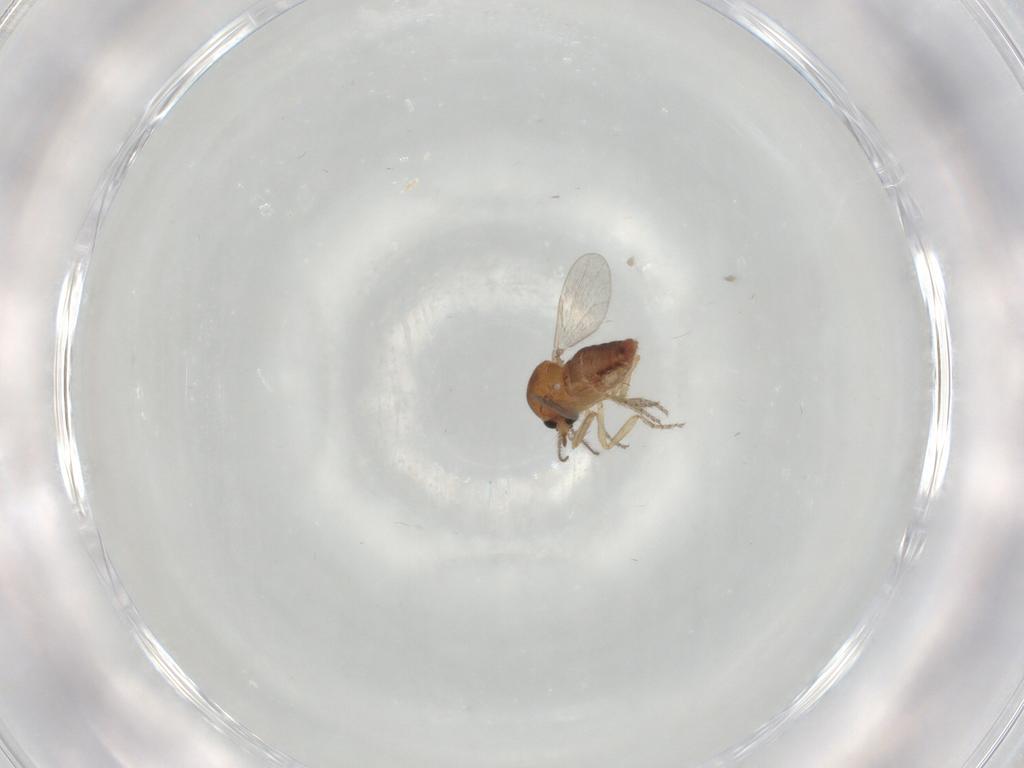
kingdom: Animalia
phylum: Arthropoda
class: Insecta
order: Diptera
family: Ceratopogonidae
